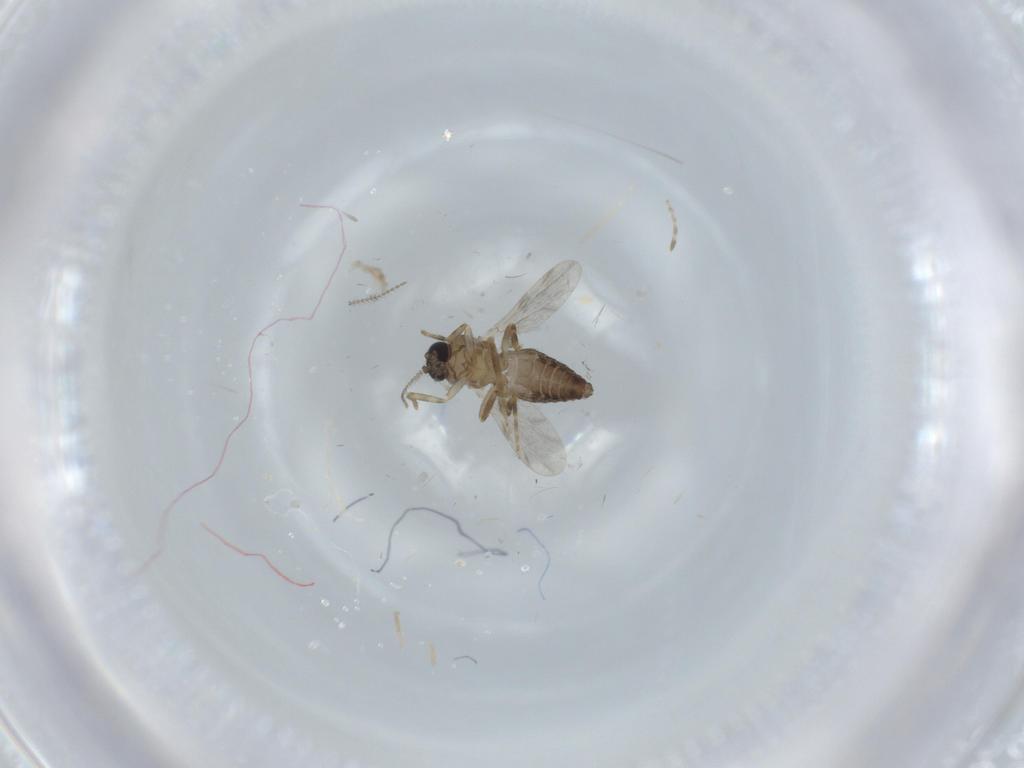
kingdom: Animalia
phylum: Arthropoda
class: Insecta
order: Diptera
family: Ceratopogonidae
